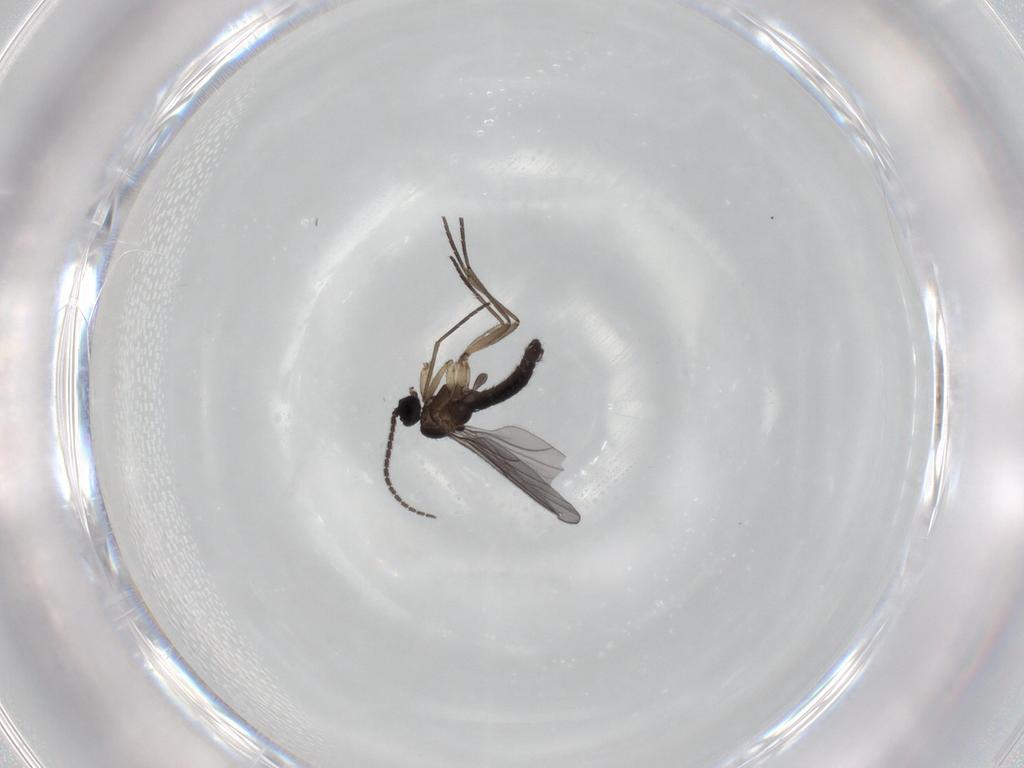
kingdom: Animalia
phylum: Arthropoda
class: Insecta
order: Diptera
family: Sciaridae
